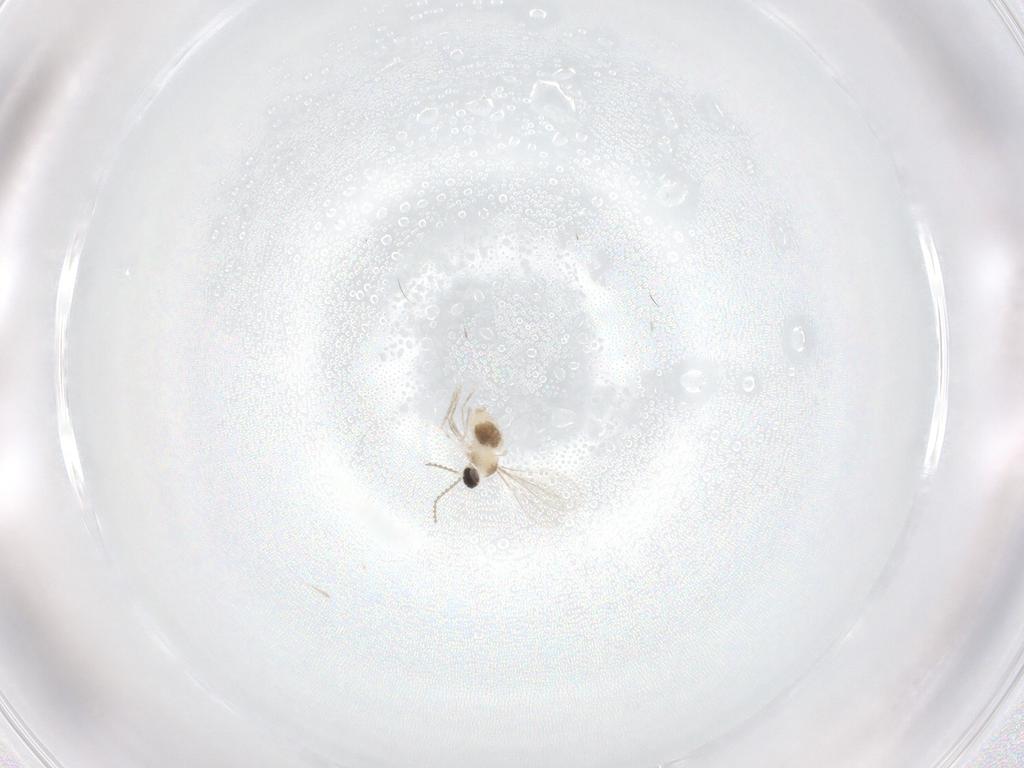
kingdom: Animalia
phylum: Arthropoda
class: Insecta
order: Diptera
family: Cecidomyiidae
